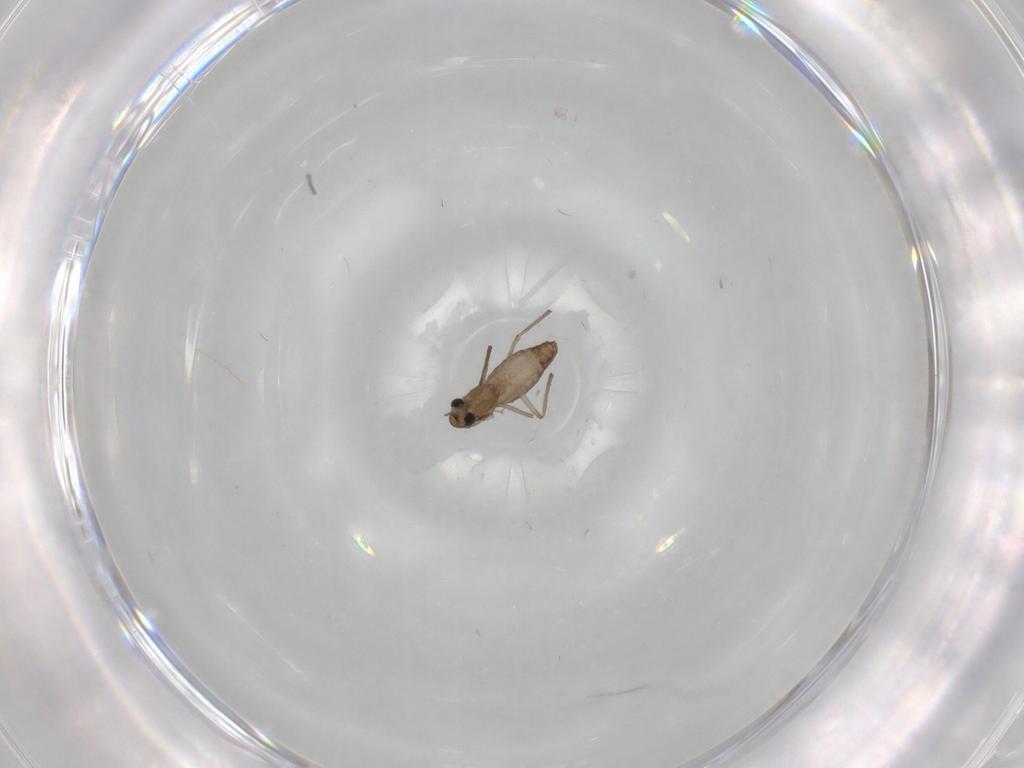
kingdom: Animalia
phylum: Arthropoda
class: Insecta
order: Diptera
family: Chironomidae
